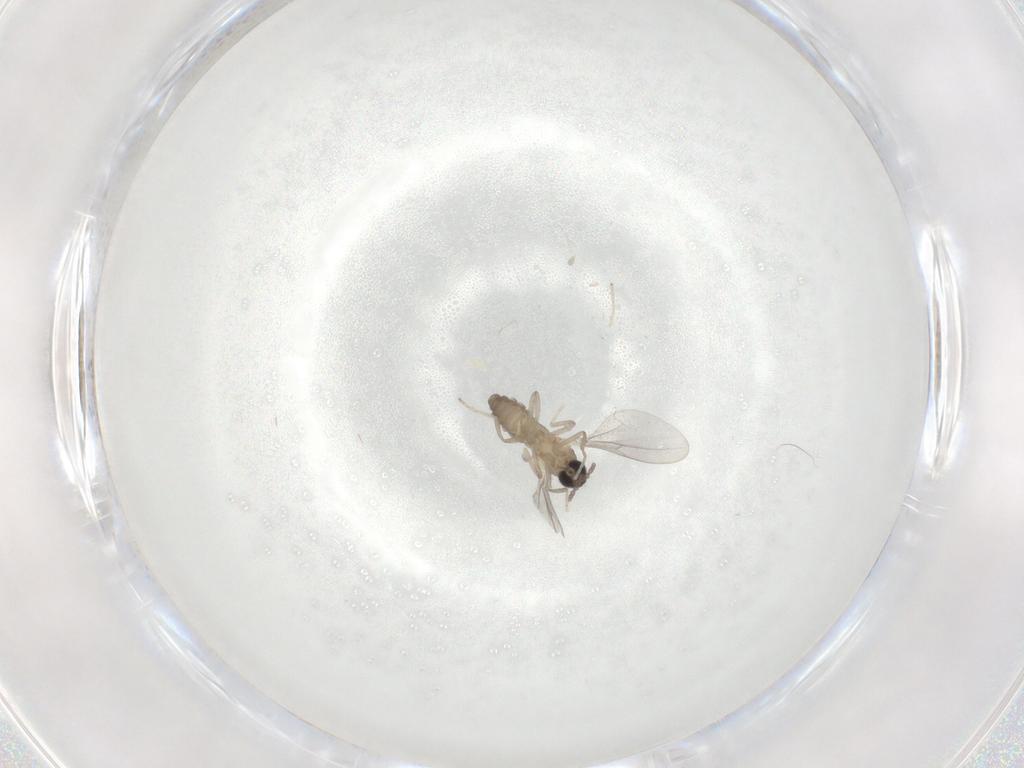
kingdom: Animalia
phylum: Arthropoda
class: Insecta
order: Diptera
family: Cecidomyiidae
